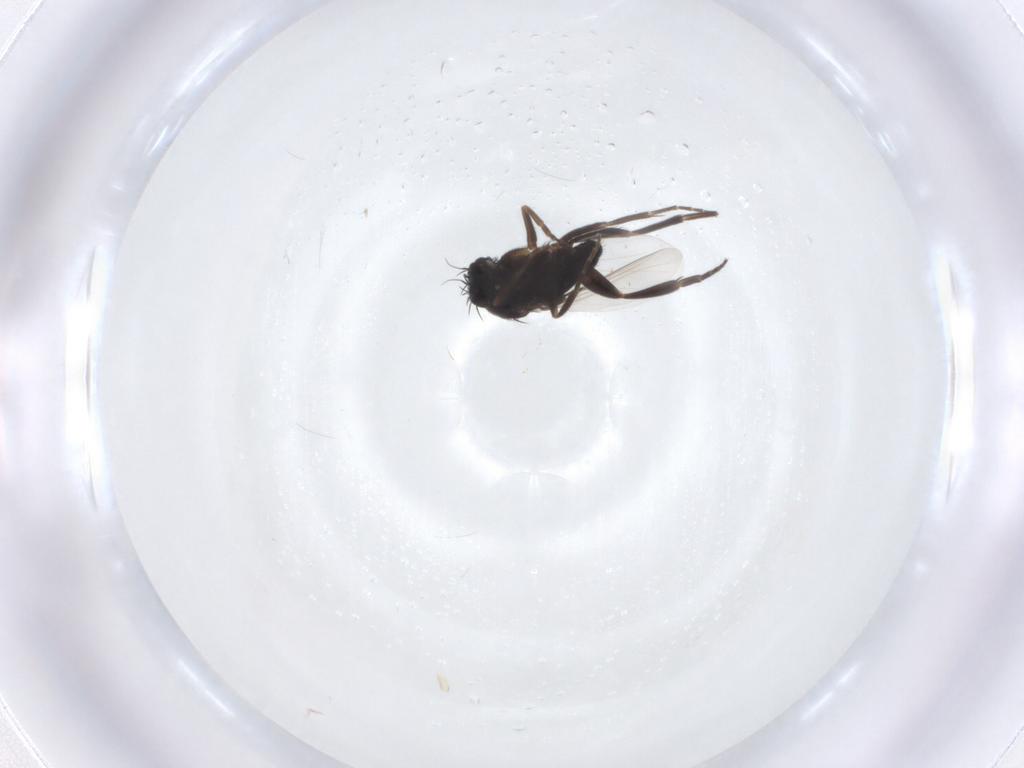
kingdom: Animalia
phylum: Arthropoda
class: Insecta
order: Diptera
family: Phoridae
